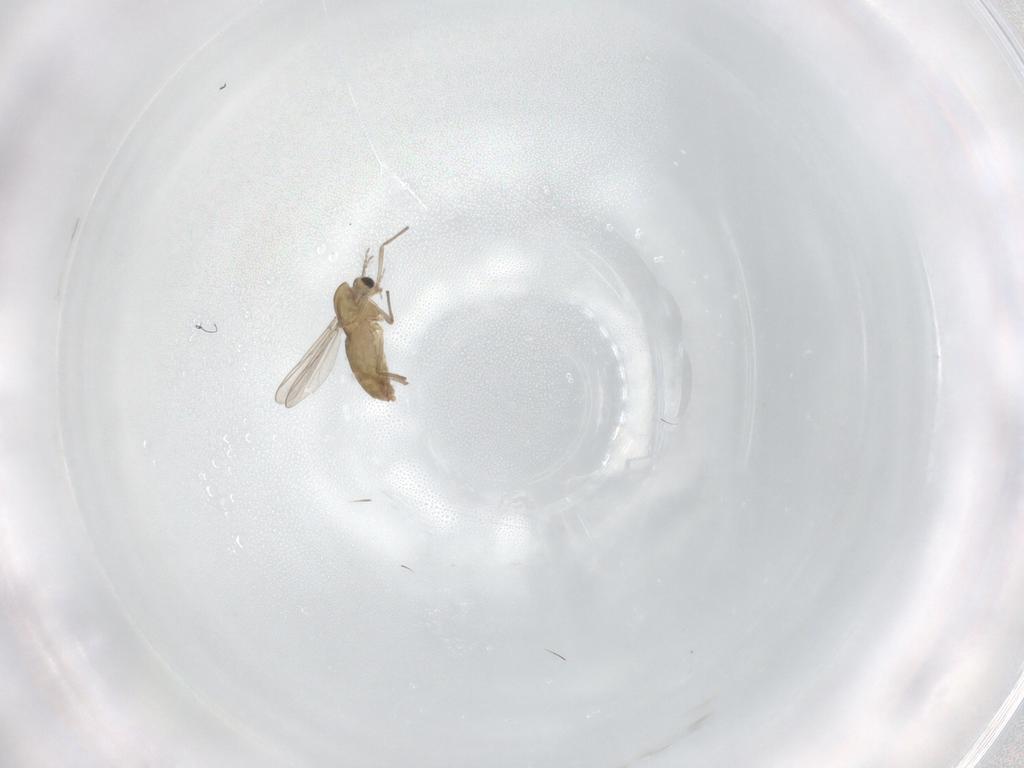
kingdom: Animalia
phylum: Arthropoda
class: Insecta
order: Diptera
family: Chironomidae
